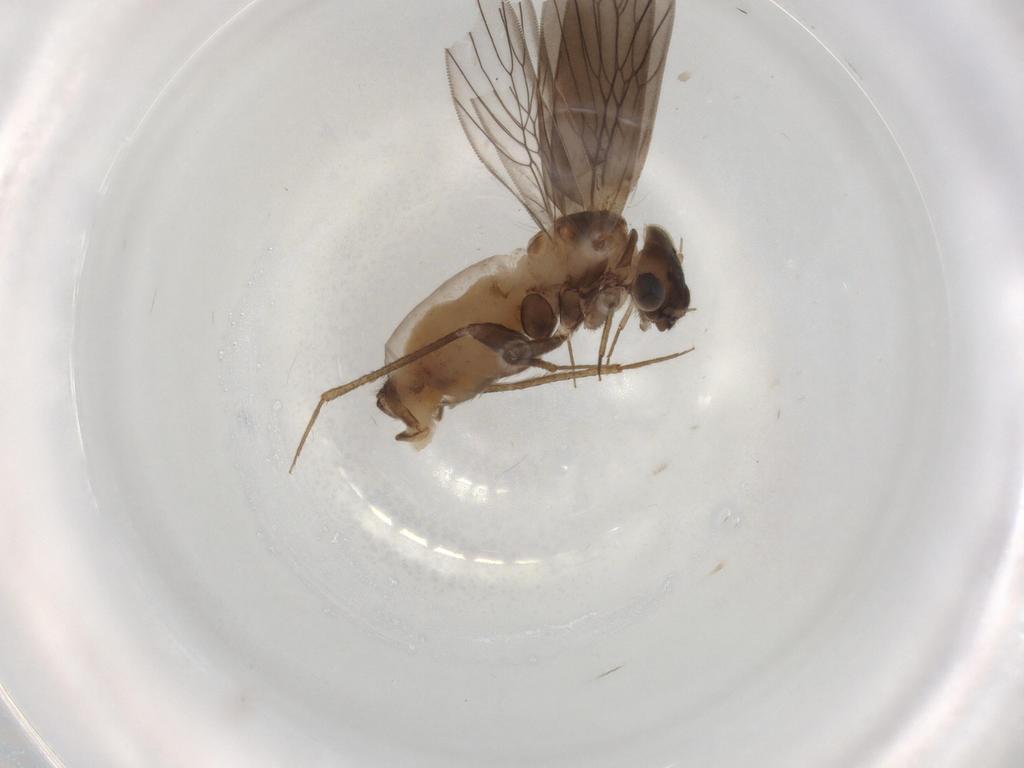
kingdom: Animalia
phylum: Arthropoda
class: Insecta
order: Psocodea
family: Lepidopsocidae
